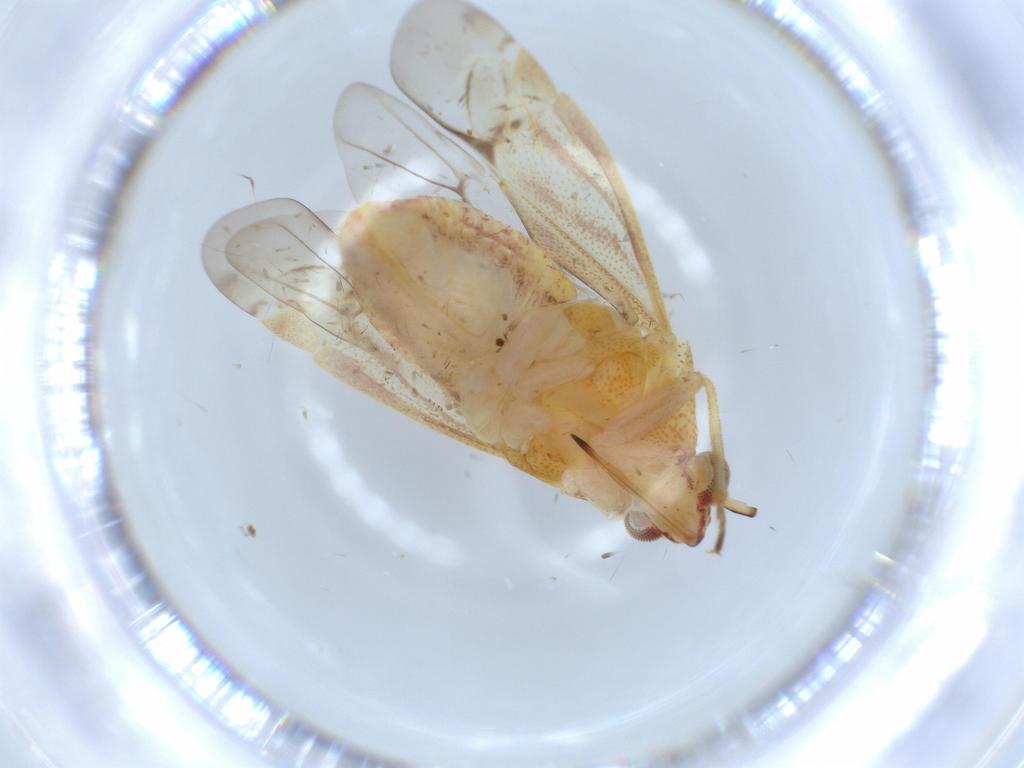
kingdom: Animalia
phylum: Arthropoda
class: Insecta
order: Hemiptera
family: Miridae
